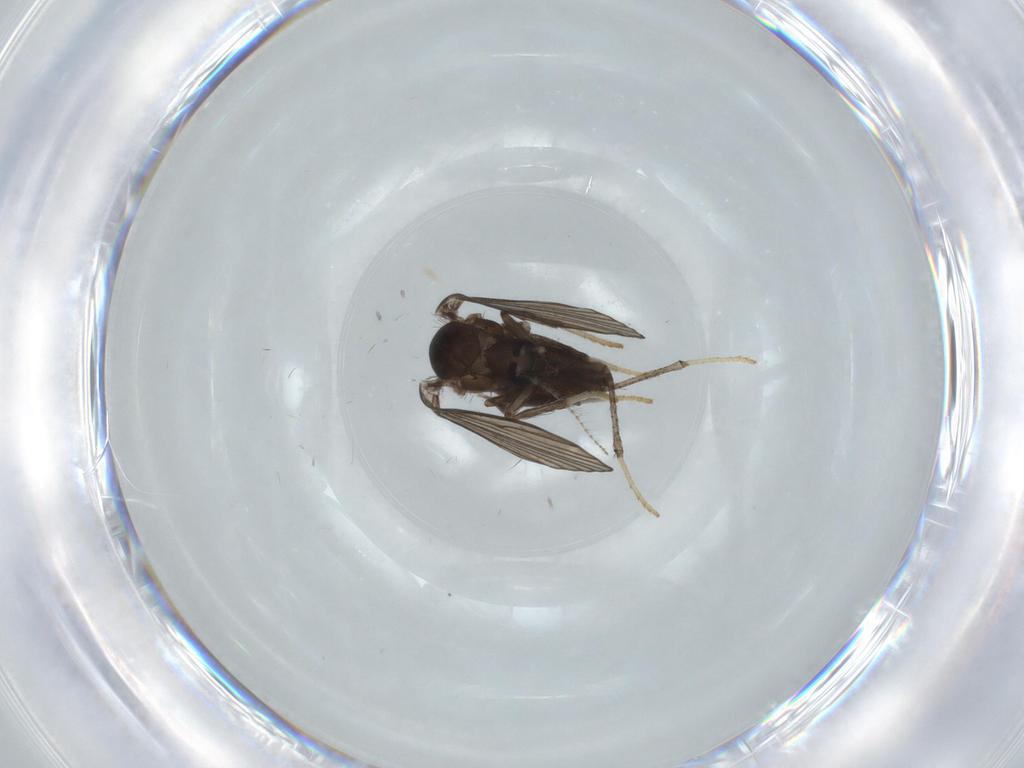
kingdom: Animalia
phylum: Arthropoda
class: Insecta
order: Diptera
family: Psychodidae
